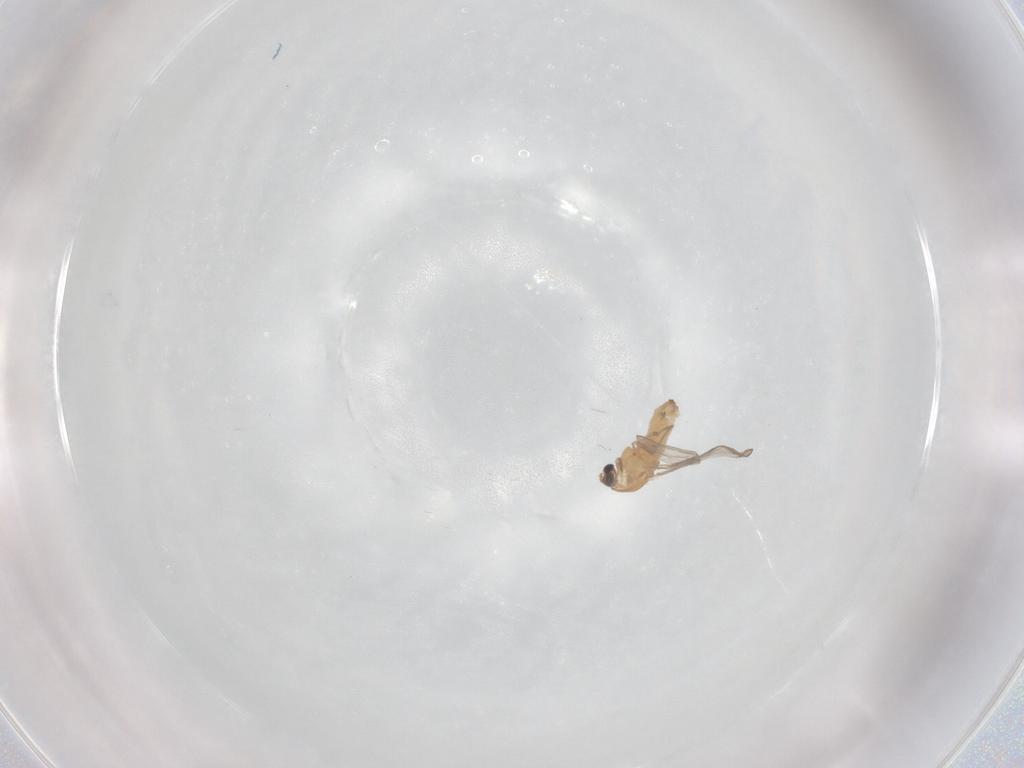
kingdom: Animalia
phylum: Arthropoda
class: Insecta
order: Diptera
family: Chironomidae
